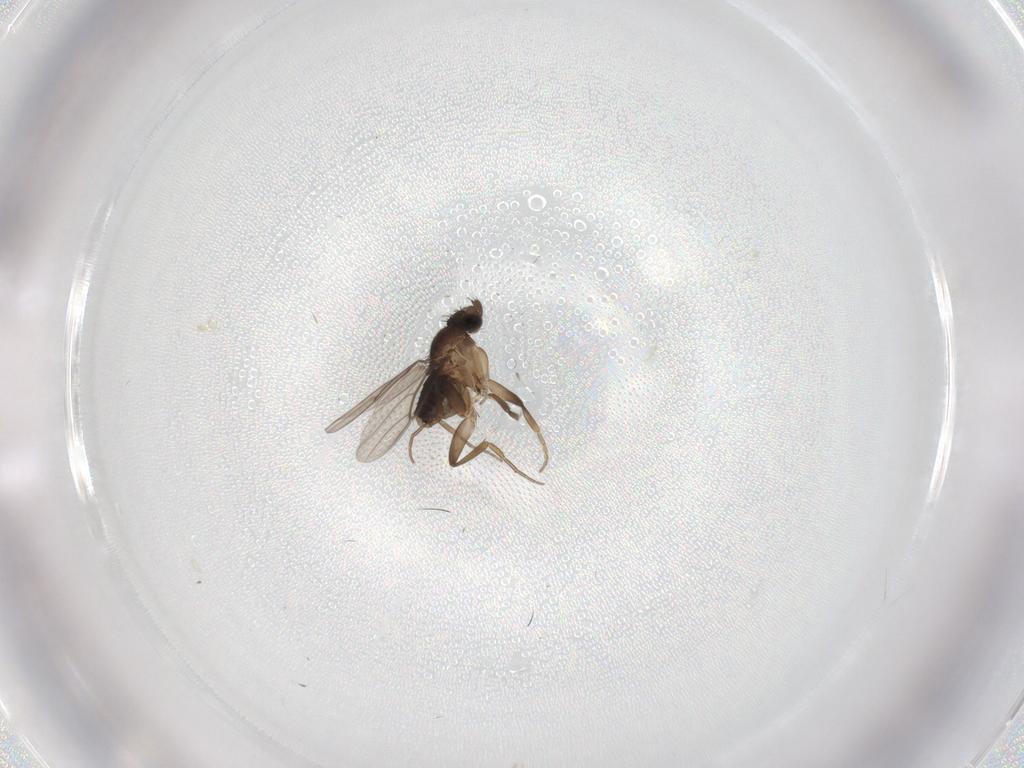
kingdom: Animalia
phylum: Arthropoda
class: Insecta
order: Diptera
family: Phoridae
